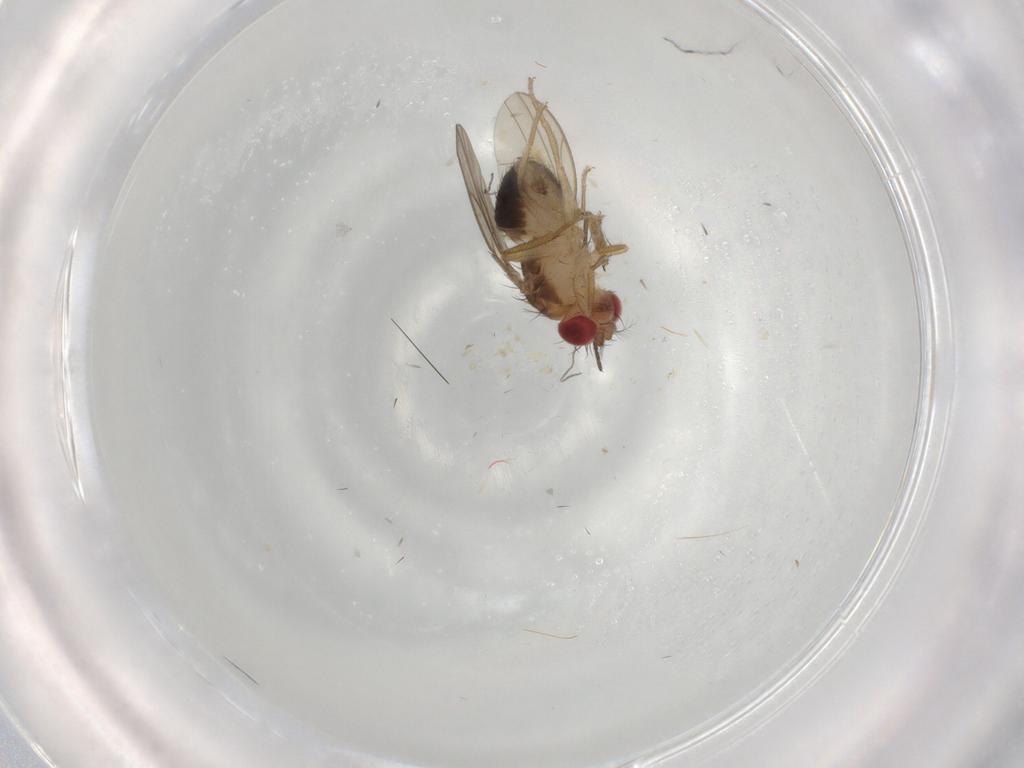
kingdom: Animalia
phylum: Arthropoda
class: Insecta
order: Diptera
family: Drosophilidae
